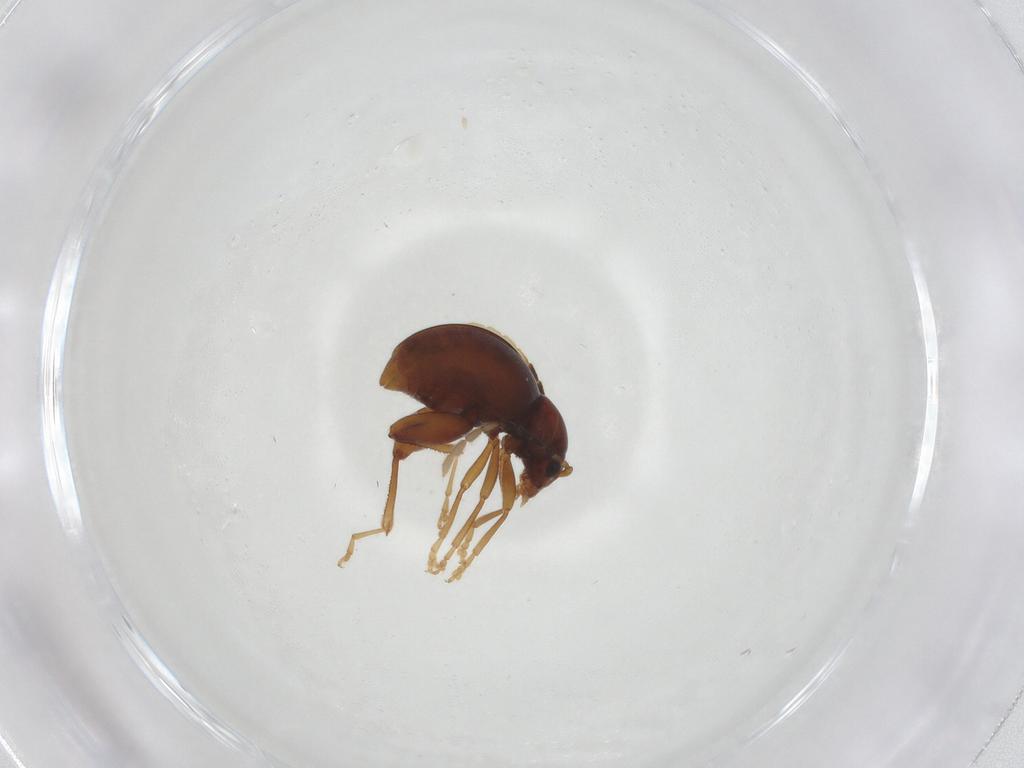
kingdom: Animalia
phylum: Arthropoda
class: Insecta
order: Coleoptera
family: Chrysomelidae
